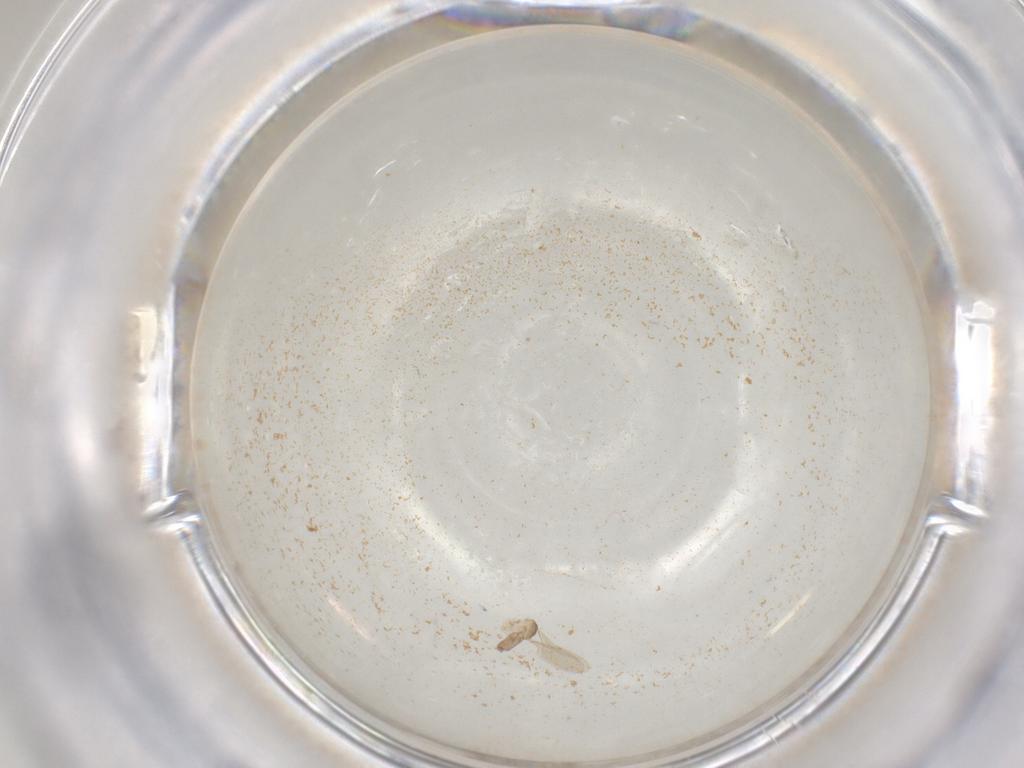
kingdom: Animalia
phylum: Arthropoda
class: Insecta
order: Diptera
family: Cecidomyiidae
